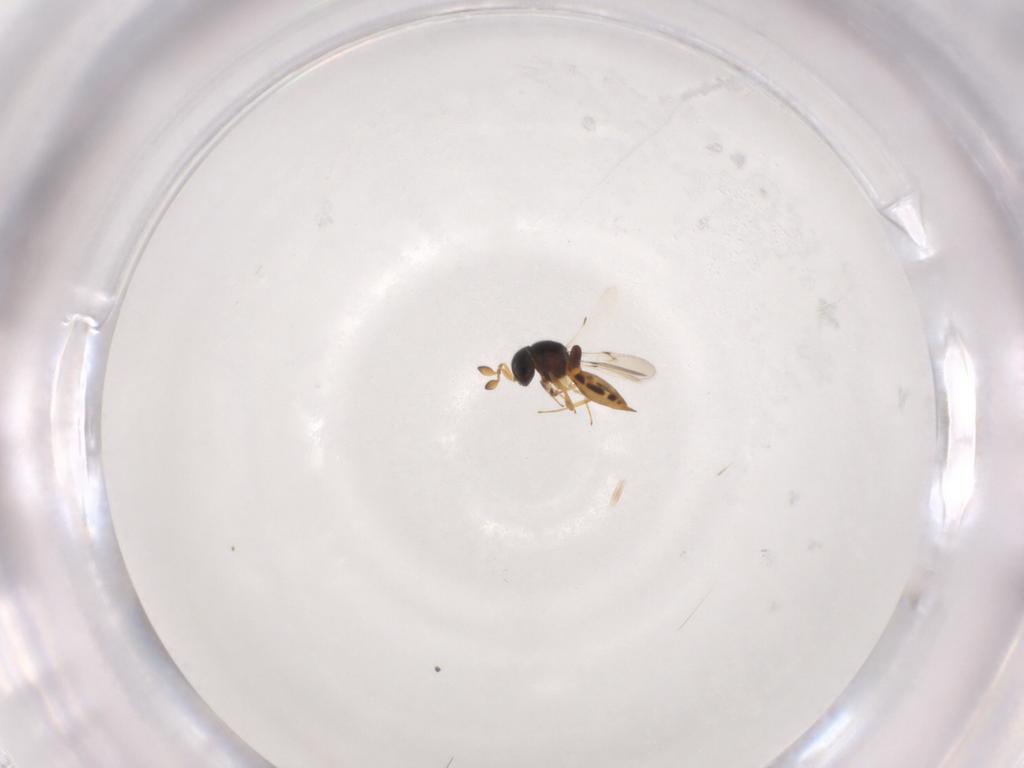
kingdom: Animalia
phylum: Arthropoda
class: Insecta
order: Hymenoptera
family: Scelionidae
